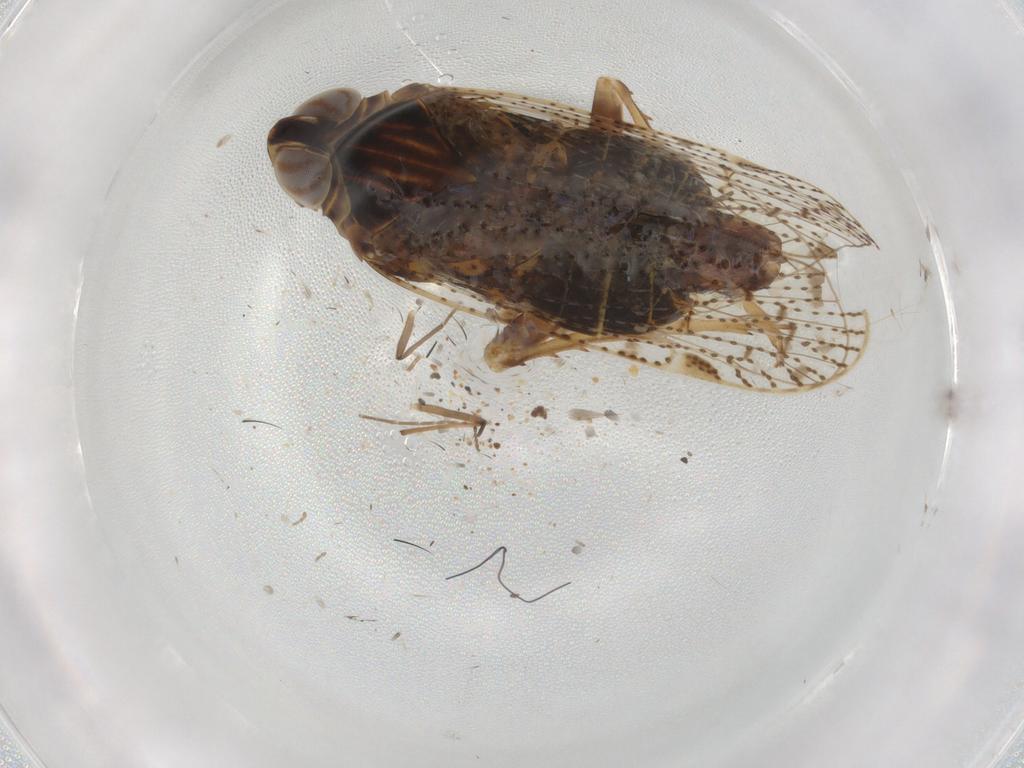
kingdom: Animalia
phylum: Arthropoda
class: Insecta
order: Hemiptera
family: Cixiidae
